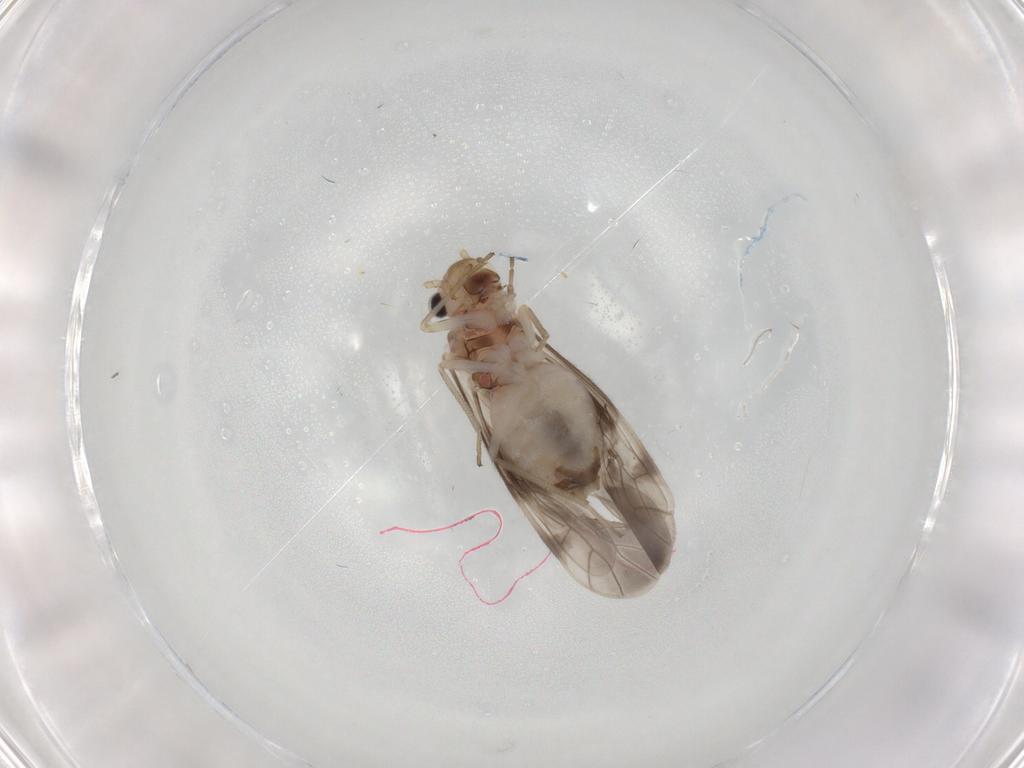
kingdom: Animalia
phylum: Arthropoda
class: Insecta
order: Psocodea
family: Caeciliusidae
